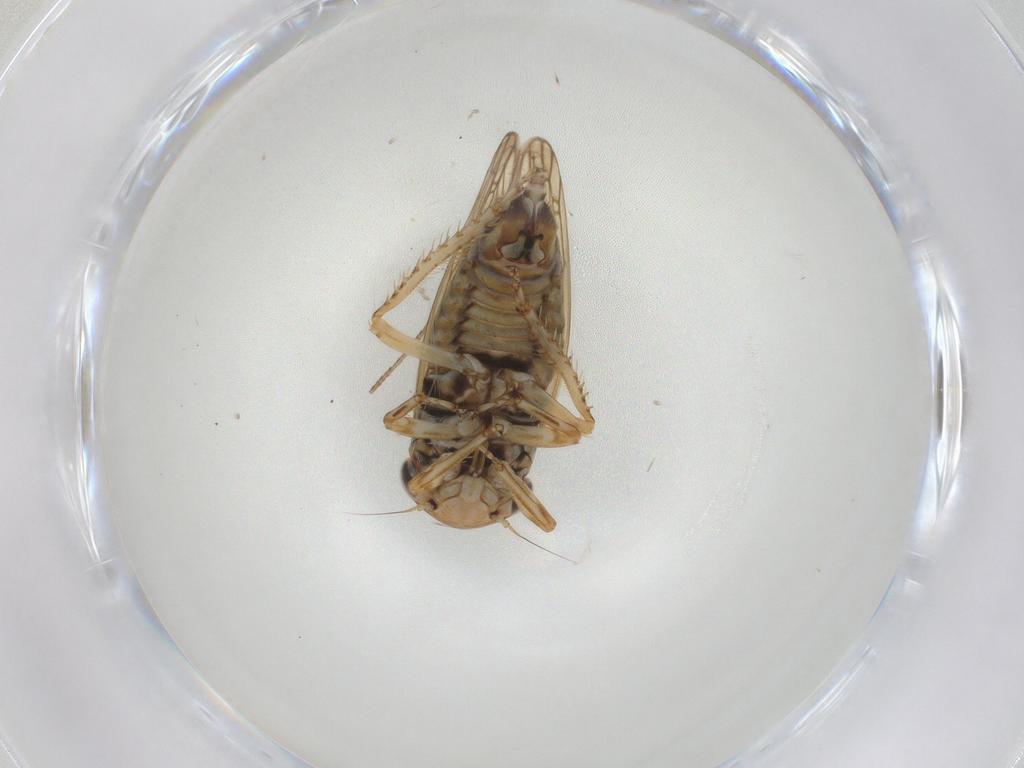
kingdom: Animalia
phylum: Arthropoda
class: Insecta
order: Hemiptera
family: Cicadellidae
